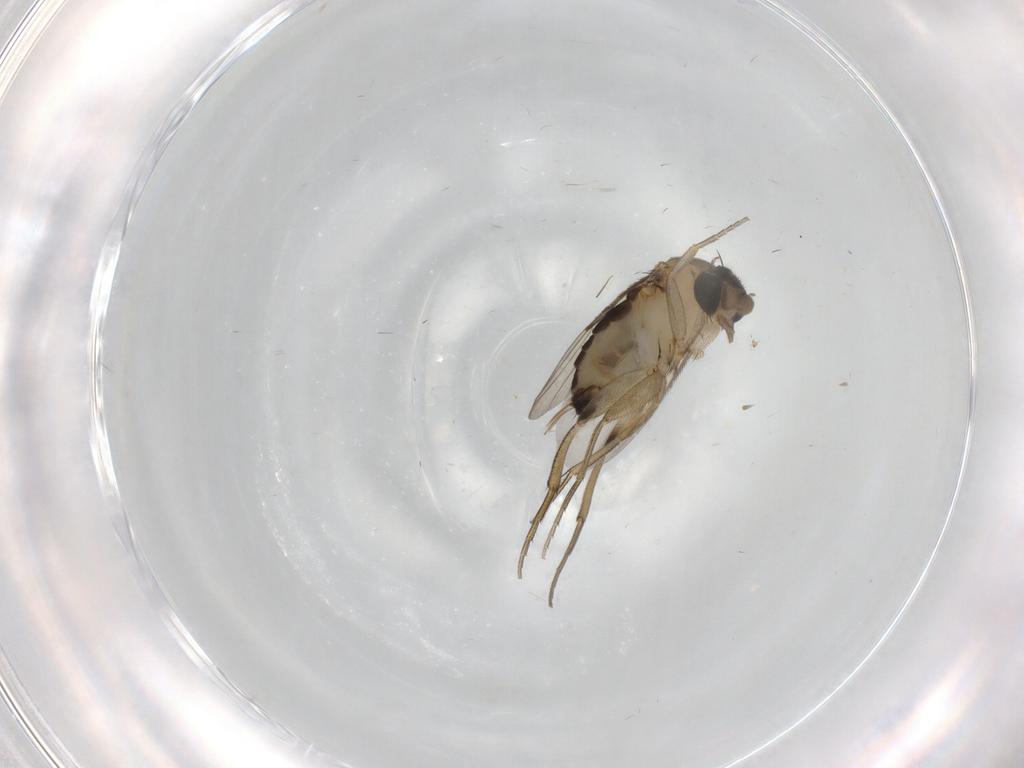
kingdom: Animalia
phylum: Arthropoda
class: Insecta
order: Diptera
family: Phoridae
